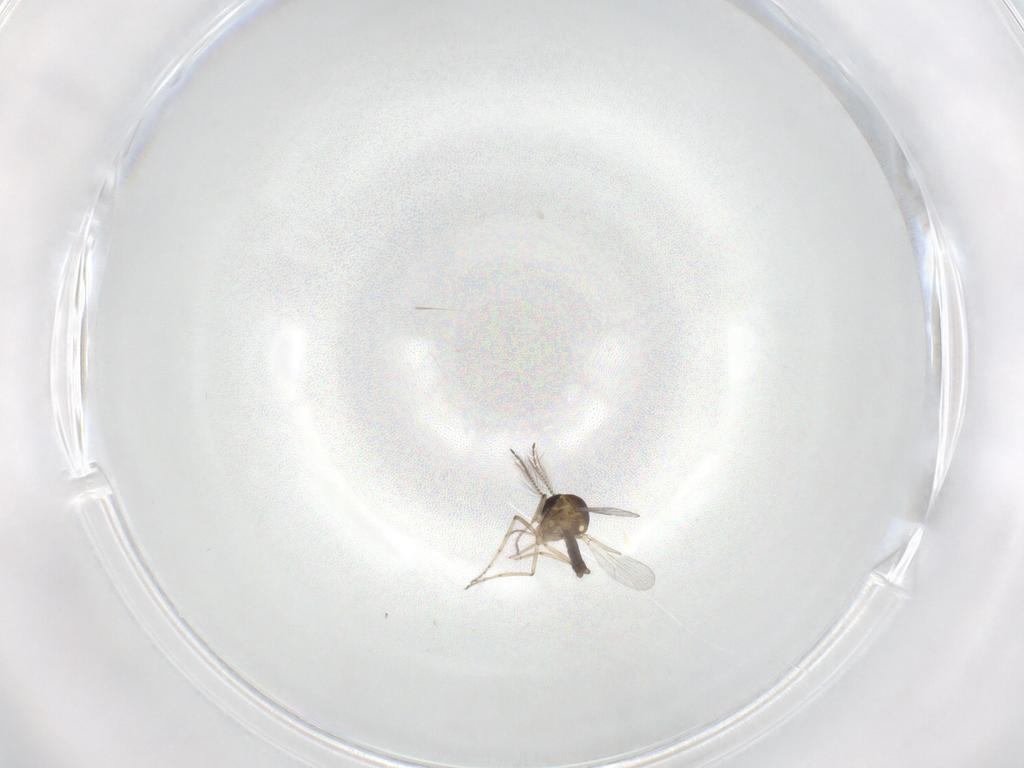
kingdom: Animalia
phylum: Arthropoda
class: Insecta
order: Diptera
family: Ceratopogonidae
